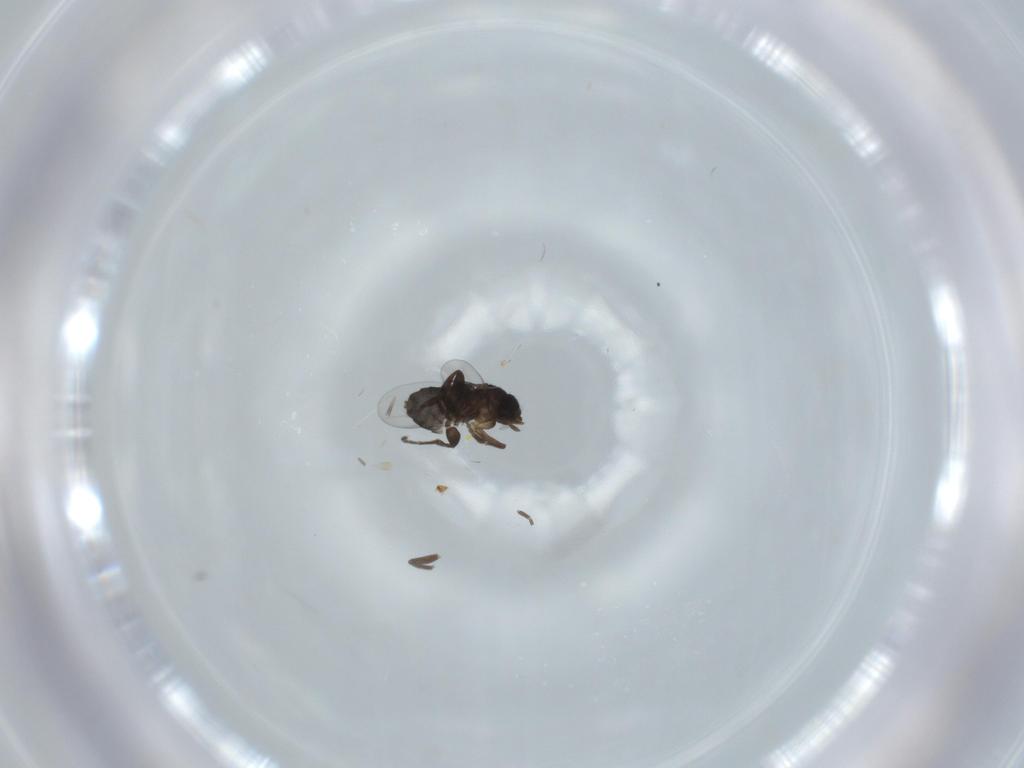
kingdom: Animalia
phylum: Arthropoda
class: Insecta
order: Diptera
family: Phoridae
